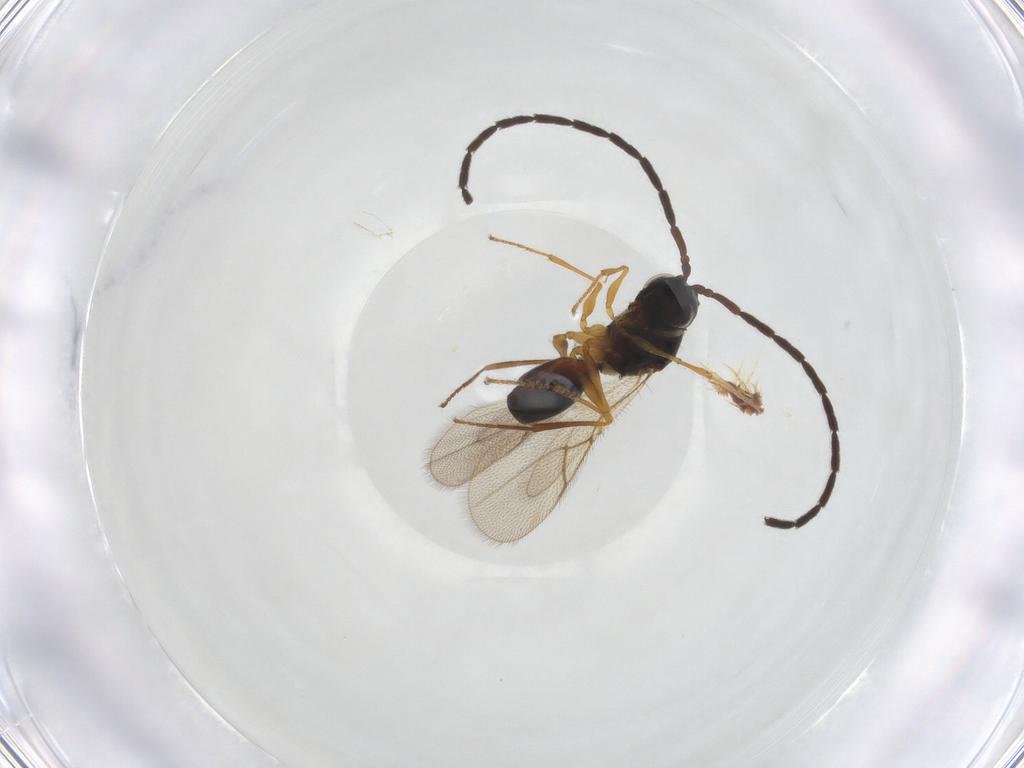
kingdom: Animalia
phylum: Arthropoda
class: Insecta
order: Hymenoptera
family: Figitidae
